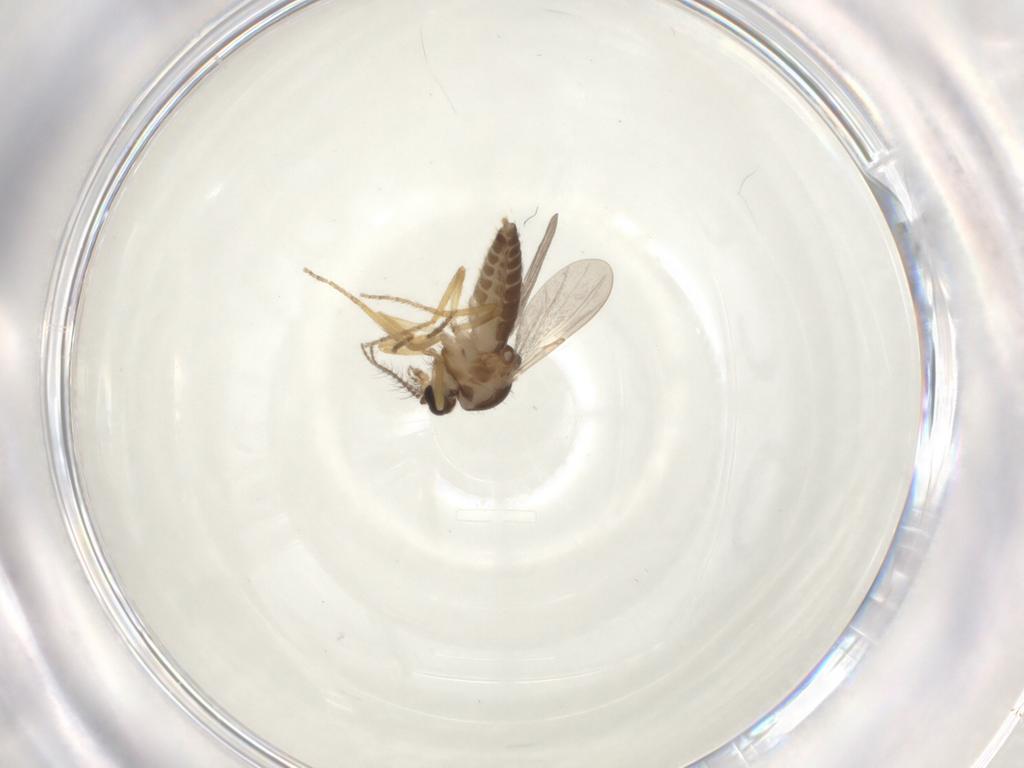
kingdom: Animalia
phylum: Arthropoda
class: Insecta
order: Diptera
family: Ceratopogonidae
